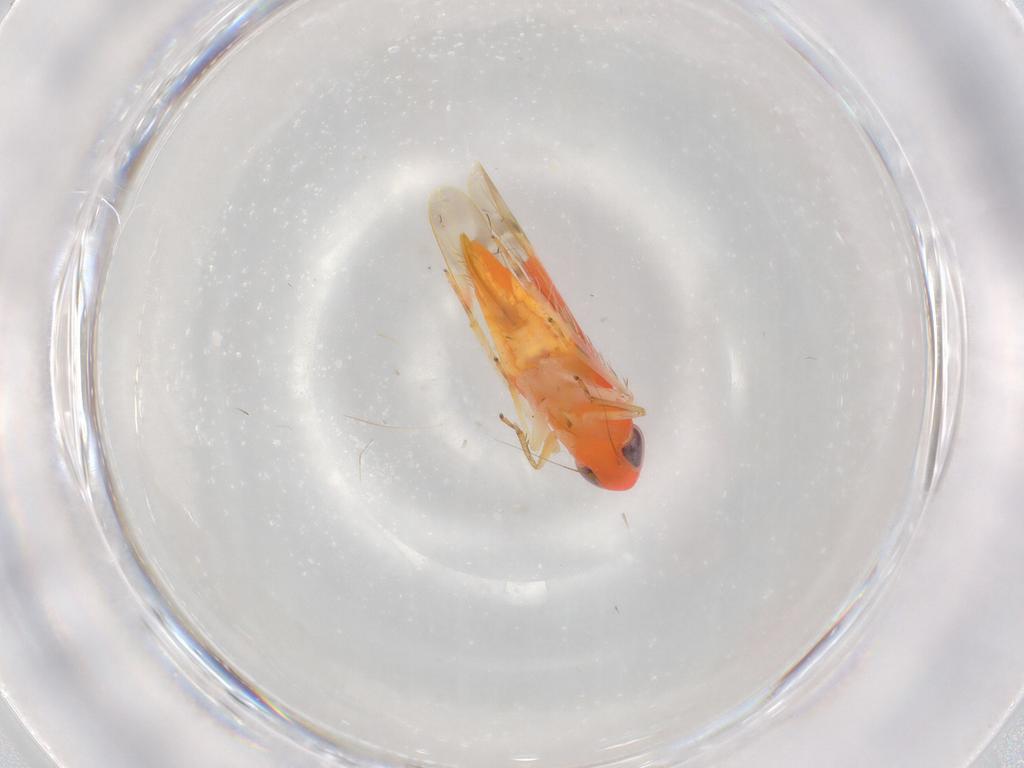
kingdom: Animalia
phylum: Arthropoda
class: Insecta
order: Hemiptera
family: Cicadellidae
